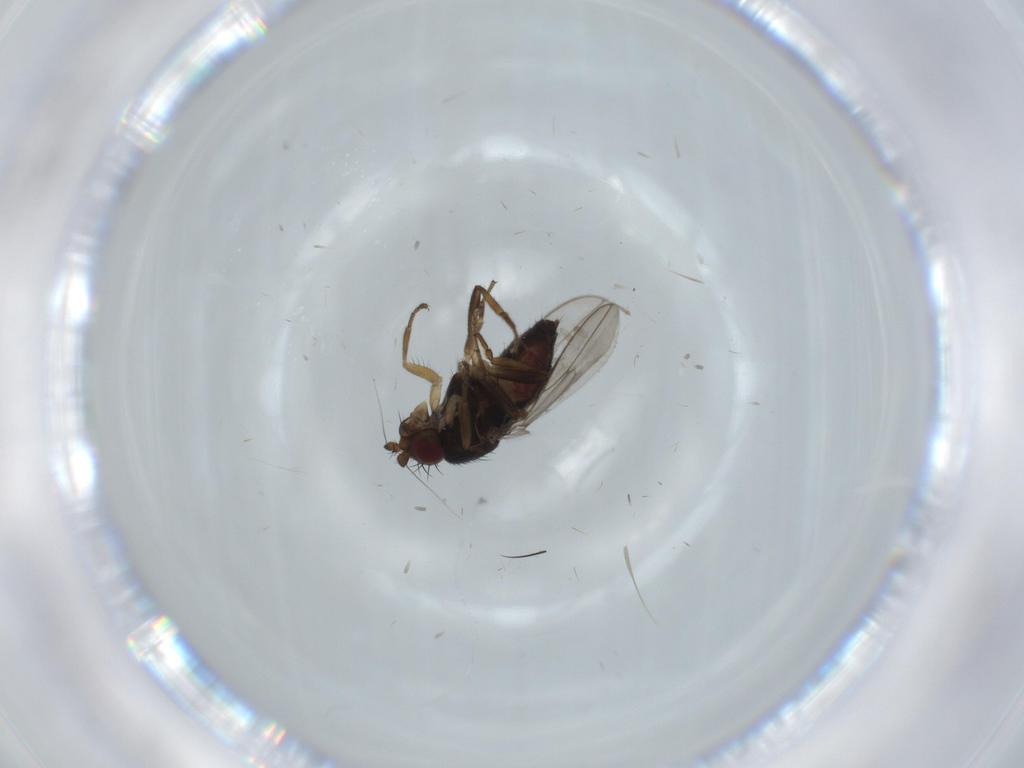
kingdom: Animalia
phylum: Arthropoda
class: Insecta
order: Diptera
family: Sphaeroceridae
